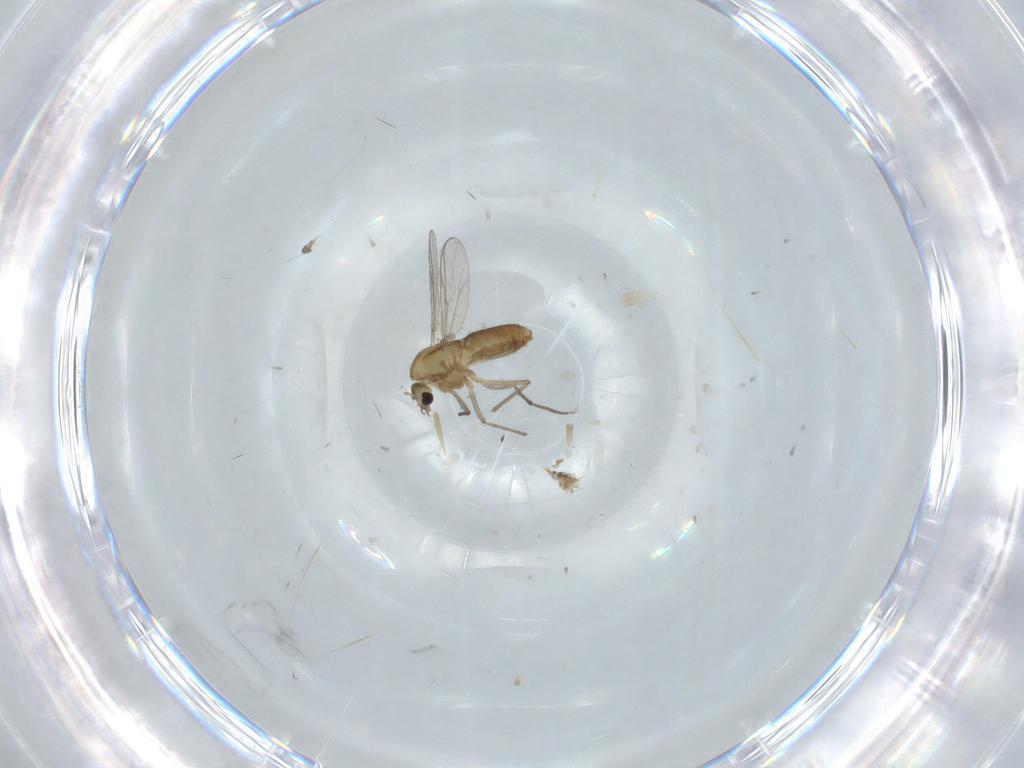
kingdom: Animalia
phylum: Arthropoda
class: Insecta
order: Diptera
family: Chironomidae
